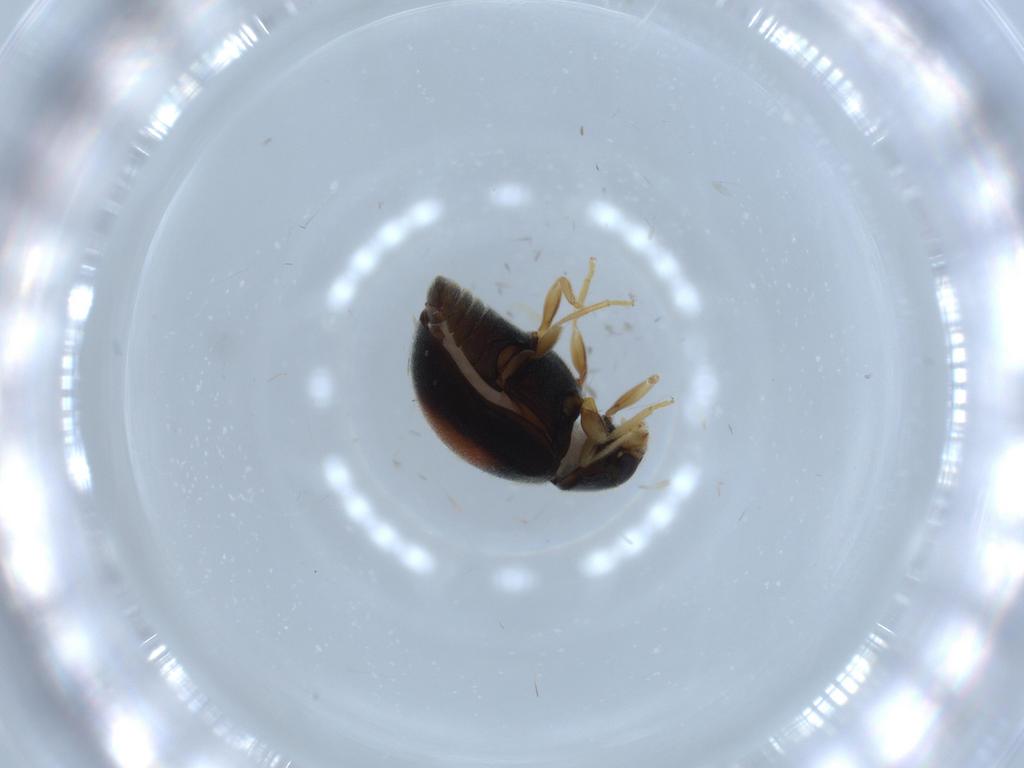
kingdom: Animalia
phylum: Arthropoda
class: Insecta
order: Coleoptera
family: Coccinellidae
